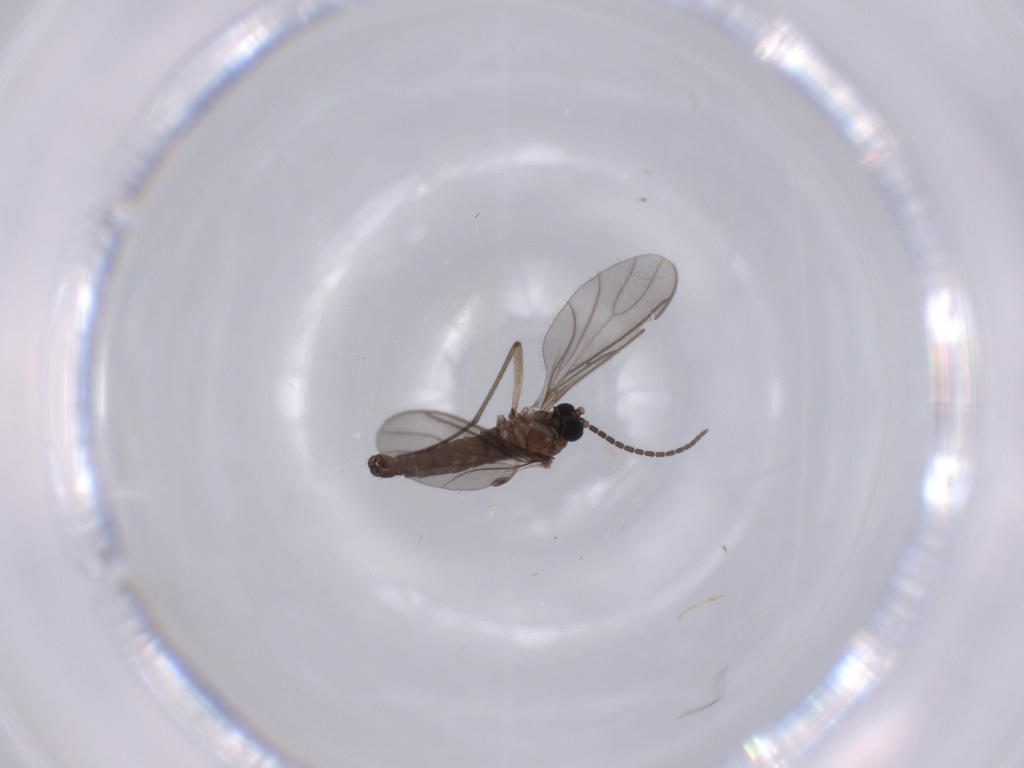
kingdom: Animalia
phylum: Arthropoda
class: Insecta
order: Diptera
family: Sciaridae
